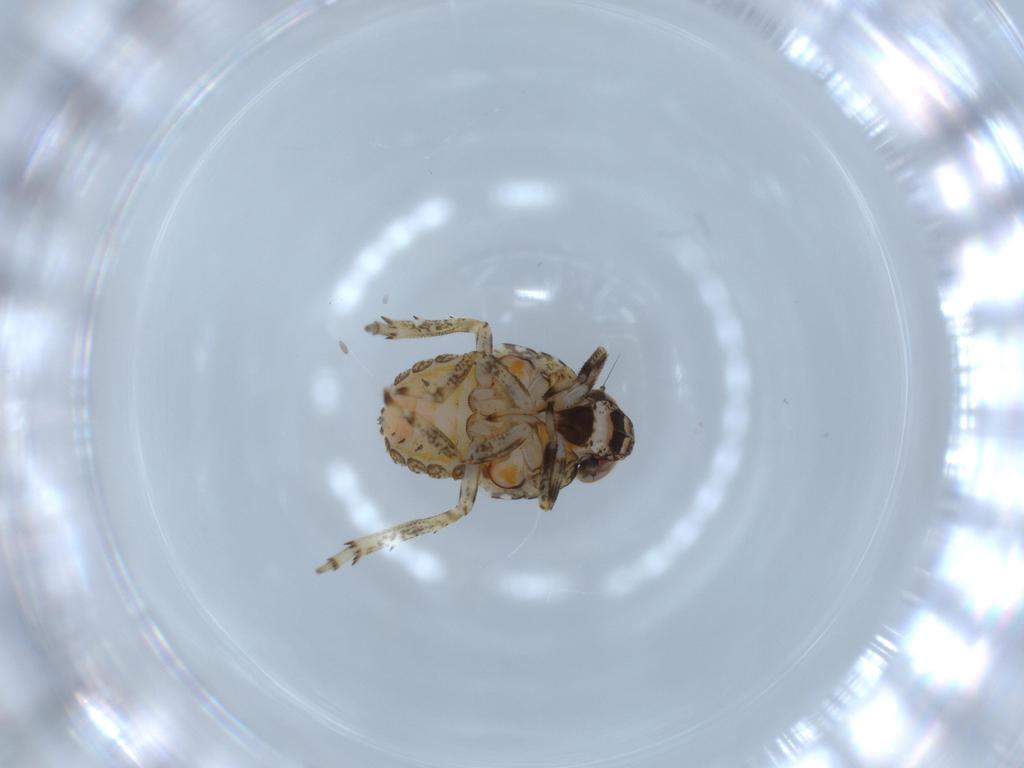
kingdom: Animalia
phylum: Arthropoda
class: Insecta
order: Hemiptera
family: Issidae
